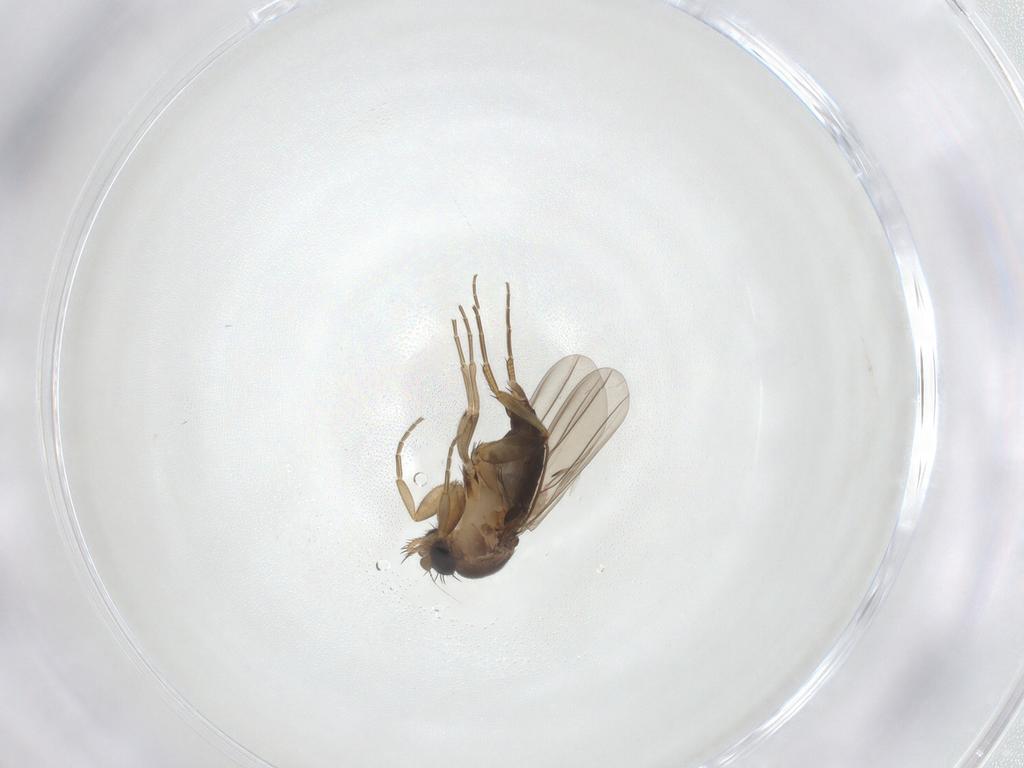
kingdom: Animalia
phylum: Arthropoda
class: Insecta
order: Diptera
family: Phoridae
